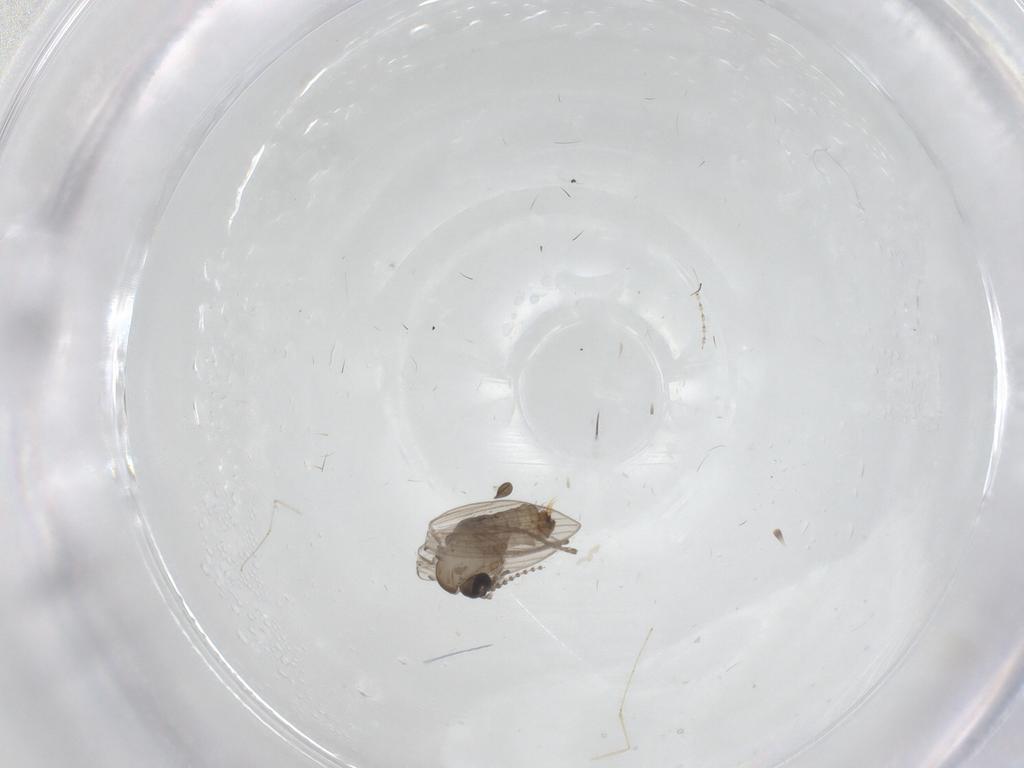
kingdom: Animalia
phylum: Arthropoda
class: Insecta
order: Diptera
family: Psychodidae
